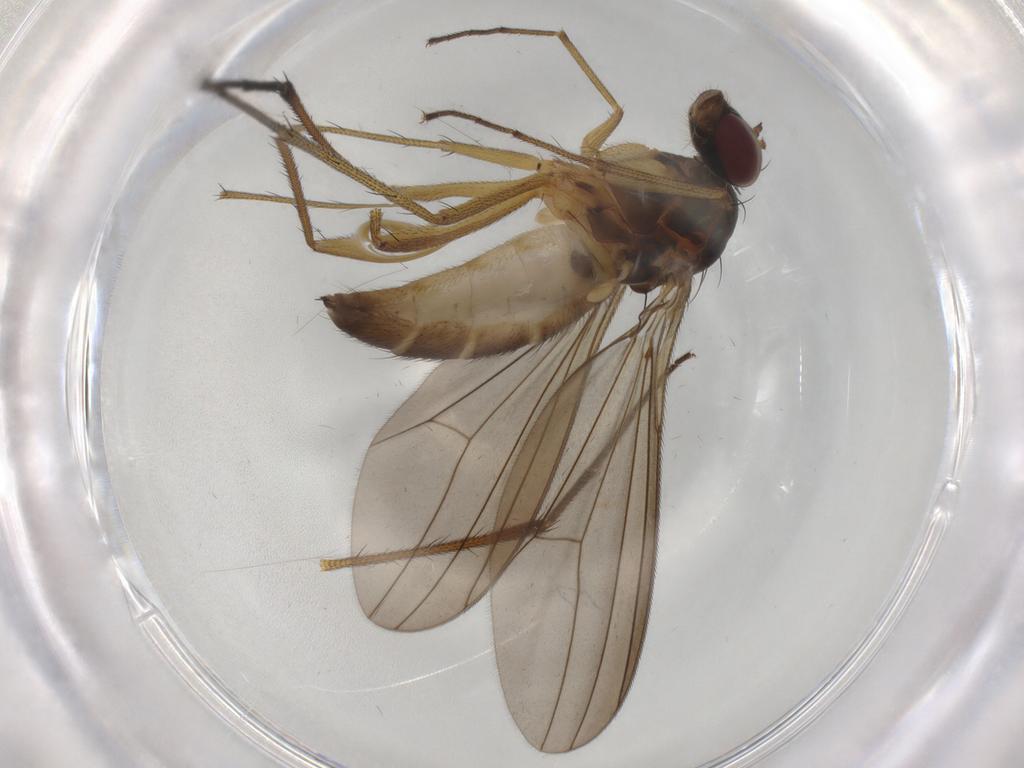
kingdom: Animalia
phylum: Arthropoda
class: Insecta
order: Diptera
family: Dolichopodidae
